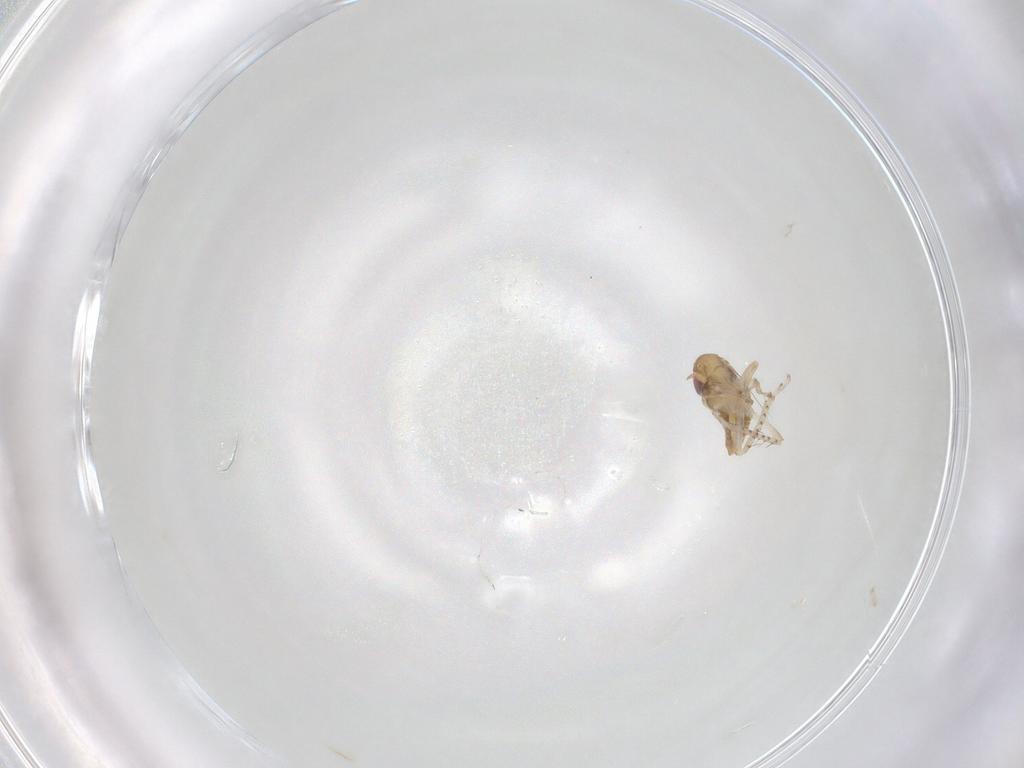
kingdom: Animalia
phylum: Arthropoda
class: Insecta
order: Hemiptera
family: Cicadellidae
